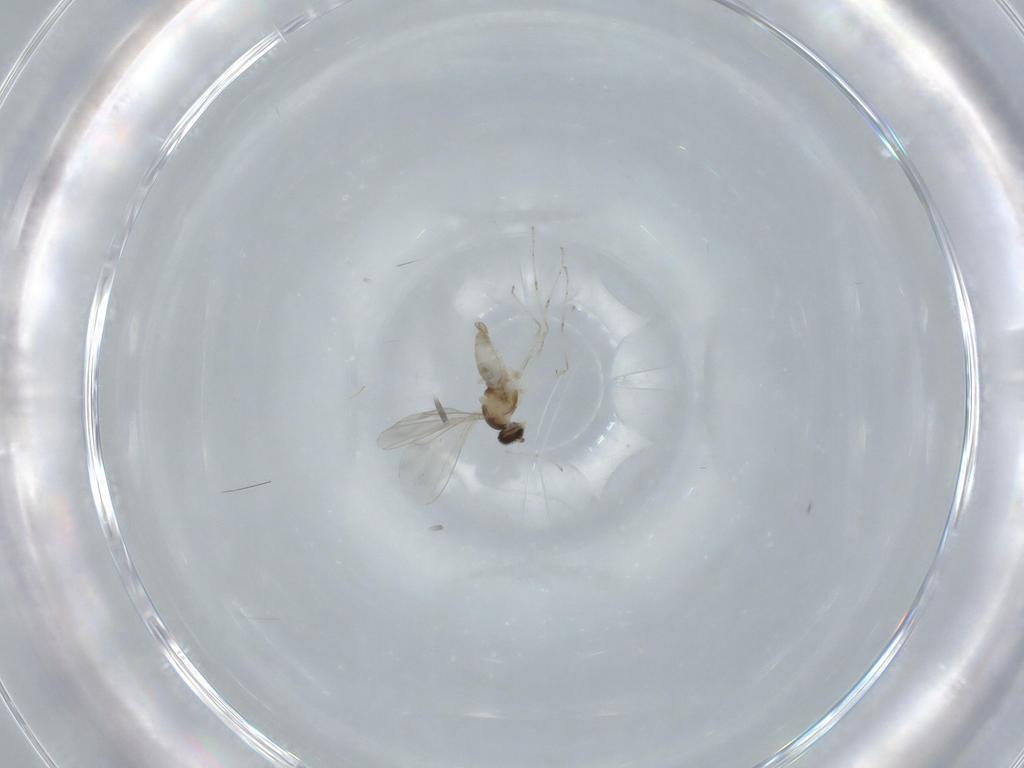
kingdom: Animalia
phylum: Arthropoda
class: Insecta
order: Diptera
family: Cecidomyiidae
